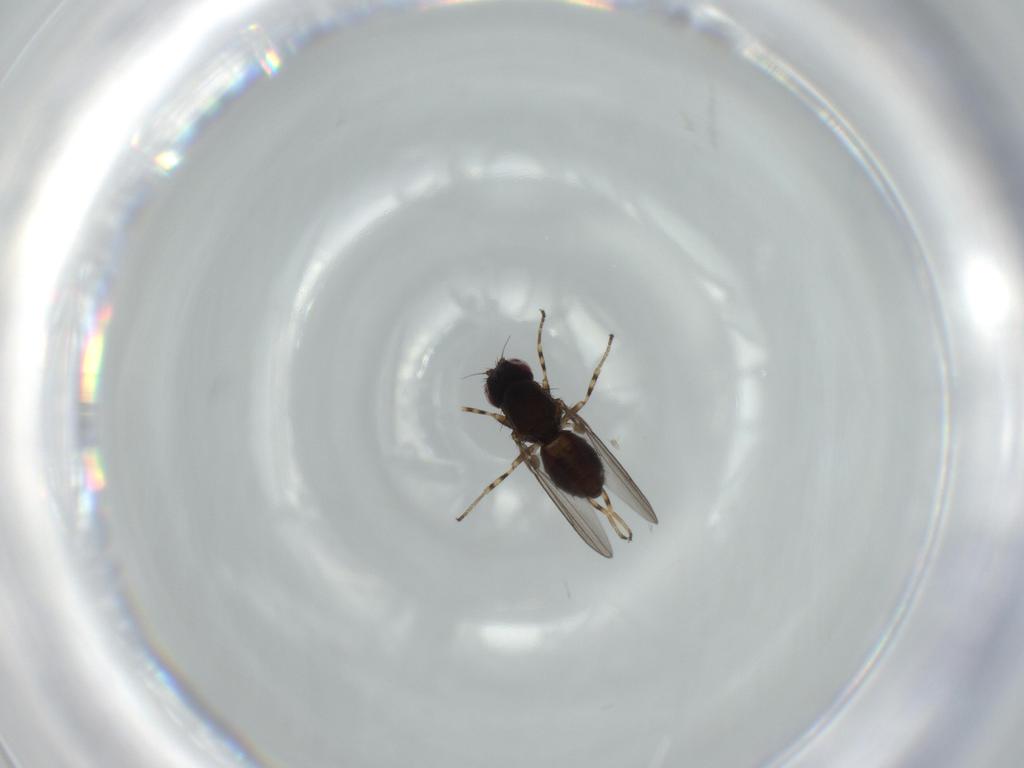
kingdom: Animalia
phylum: Arthropoda
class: Insecta
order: Diptera
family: Chloropidae
